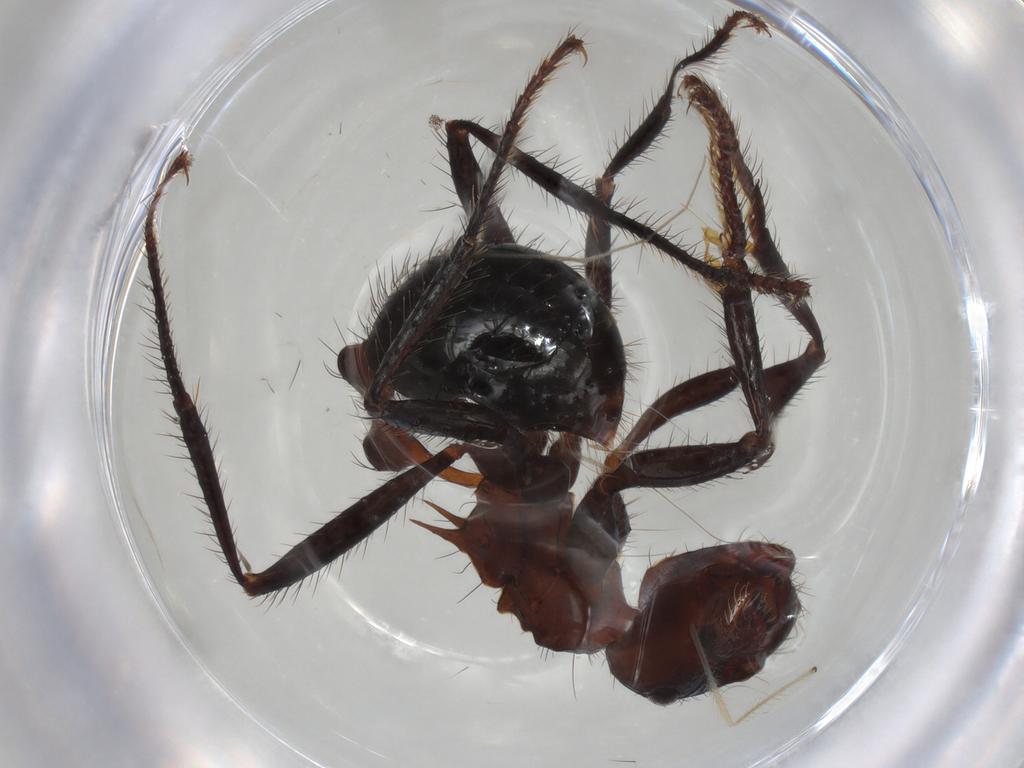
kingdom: Animalia
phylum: Arthropoda
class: Insecta
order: Hymenoptera
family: Formicidae
